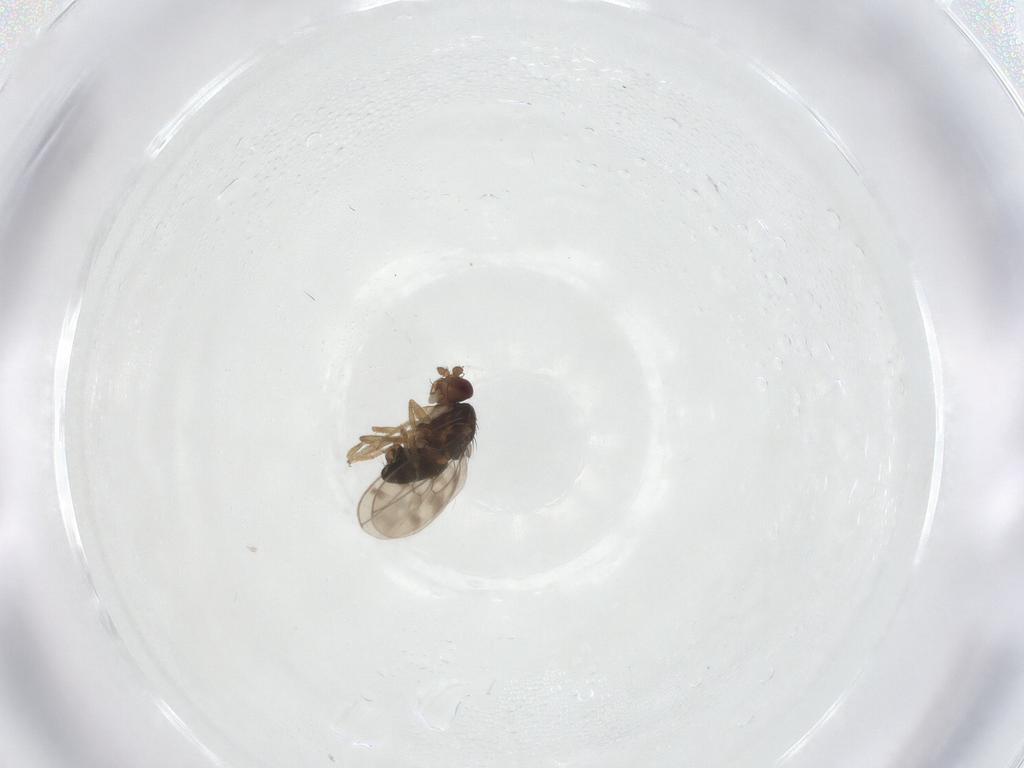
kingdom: Animalia
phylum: Arthropoda
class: Insecta
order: Diptera
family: Sphaeroceridae
